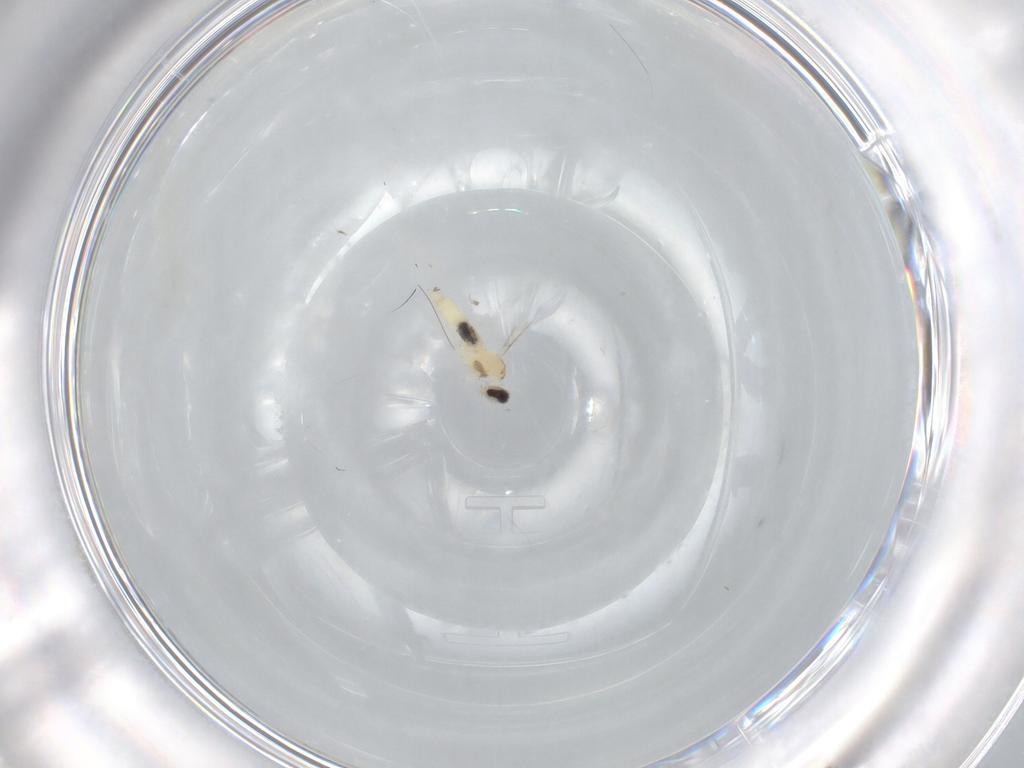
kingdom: Animalia
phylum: Arthropoda
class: Insecta
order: Diptera
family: Cecidomyiidae
